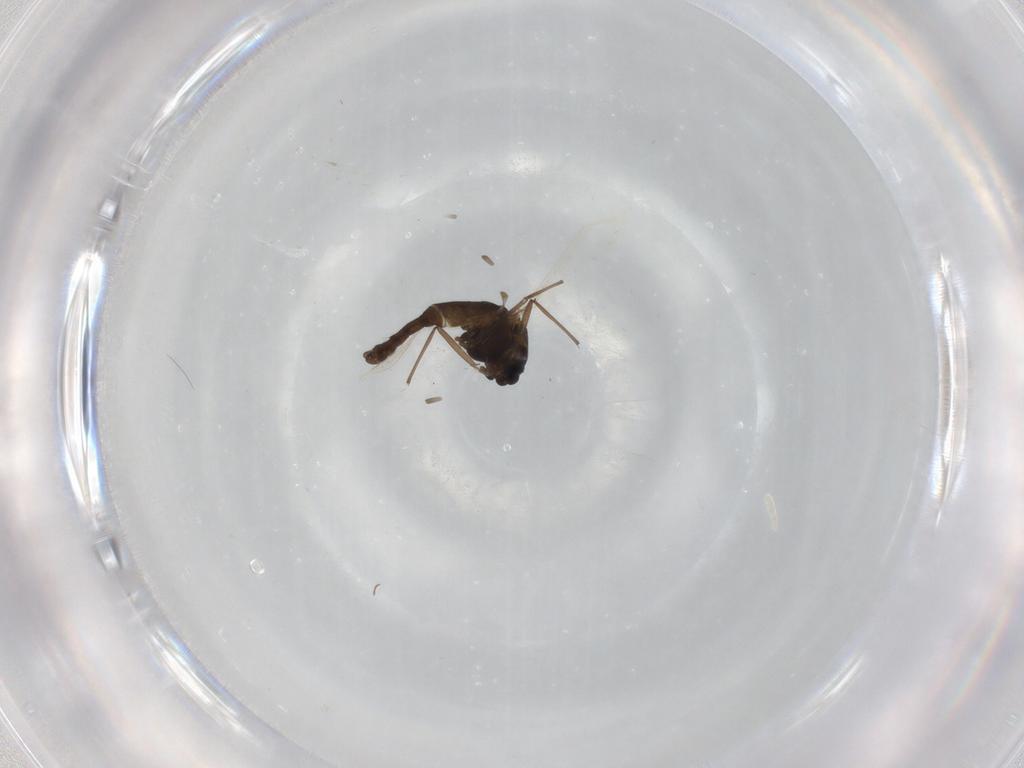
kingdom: Animalia
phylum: Arthropoda
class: Insecta
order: Diptera
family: Chironomidae
